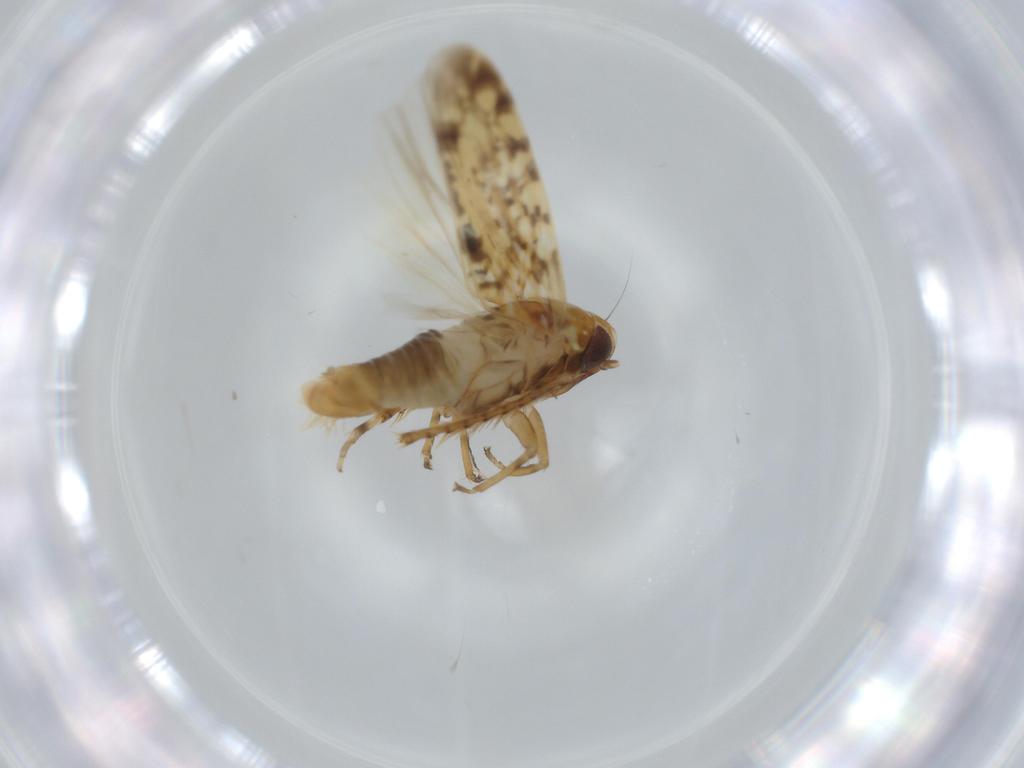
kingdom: Animalia
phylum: Arthropoda
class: Insecta
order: Hemiptera
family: Cicadellidae
